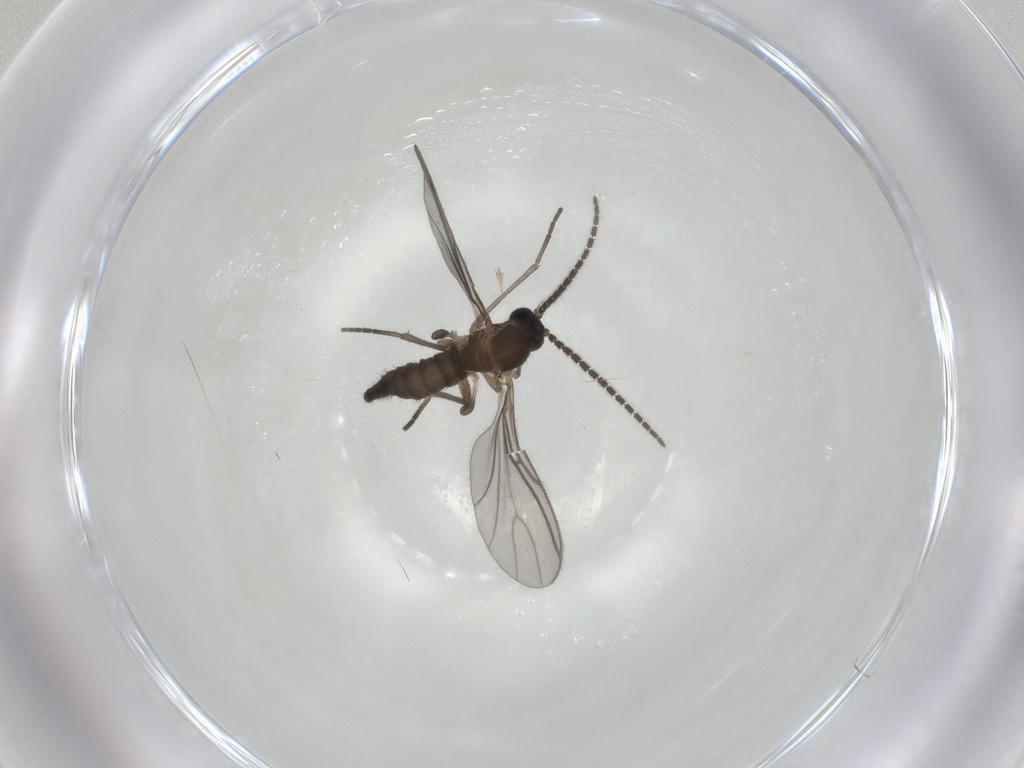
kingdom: Animalia
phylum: Arthropoda
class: Insecta
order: Diptera
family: Sciaridae
